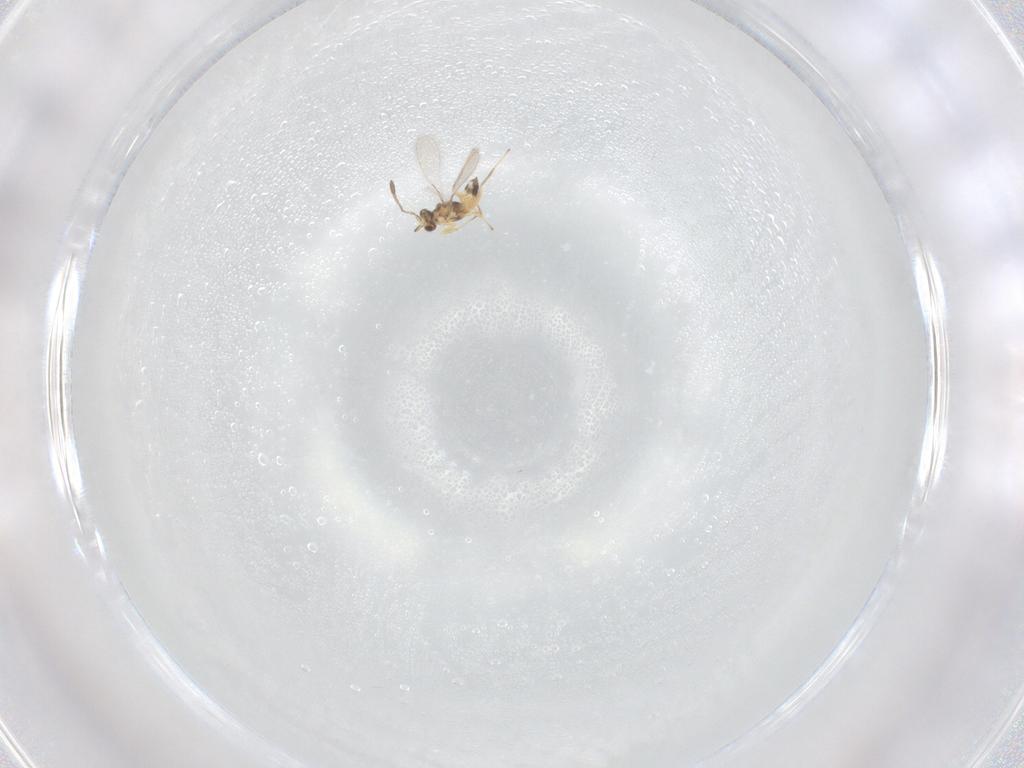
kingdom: Animalia
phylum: Arthropoda
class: Insecta
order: Hymenoptera
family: Mymaridae
